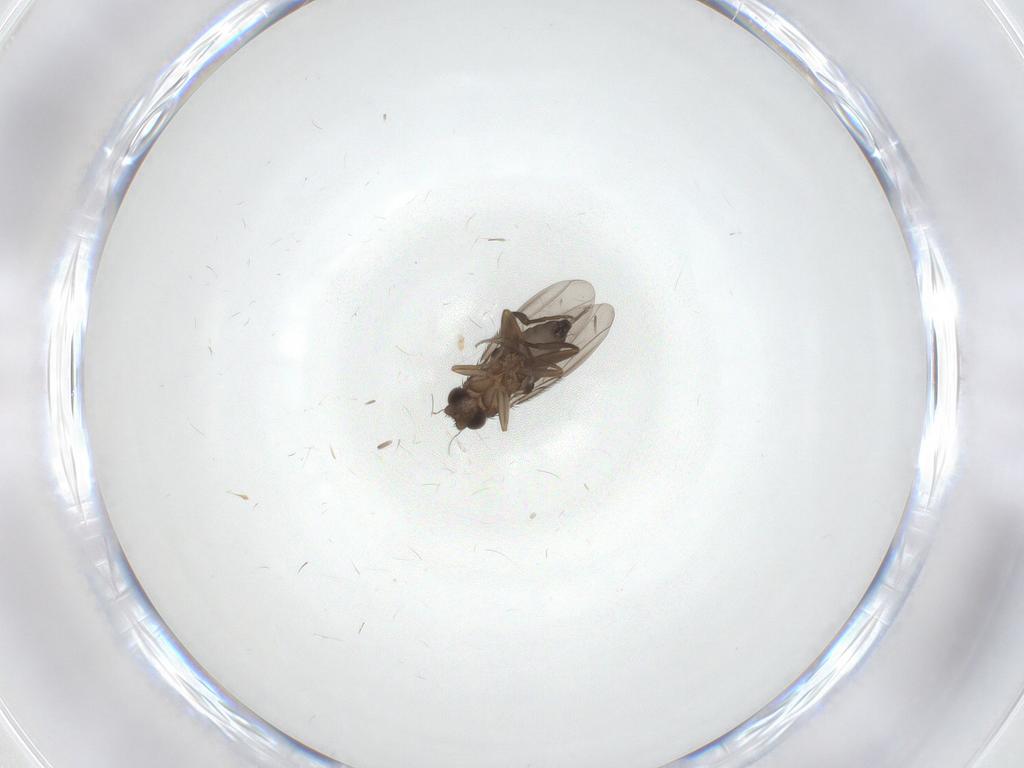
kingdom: Animalia
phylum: Arthropoda
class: Insecta
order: Diptera
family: Phoridae
